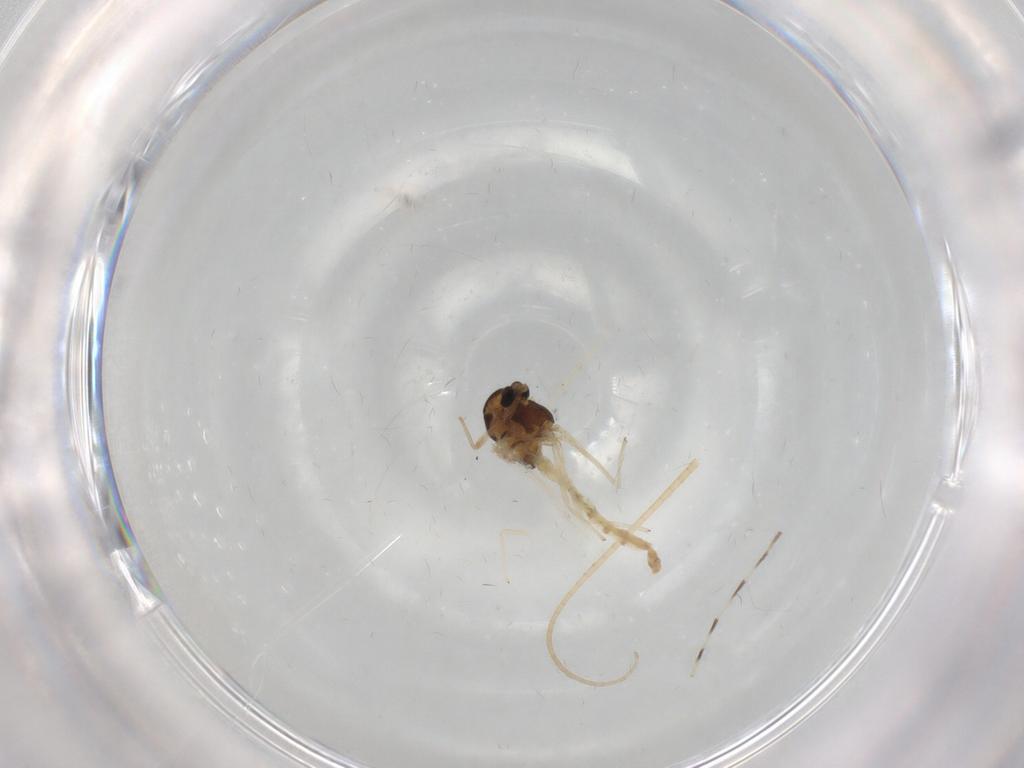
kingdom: Animalia
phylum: Arthropoda
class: Insecta
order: Diptera
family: Chironomidae
